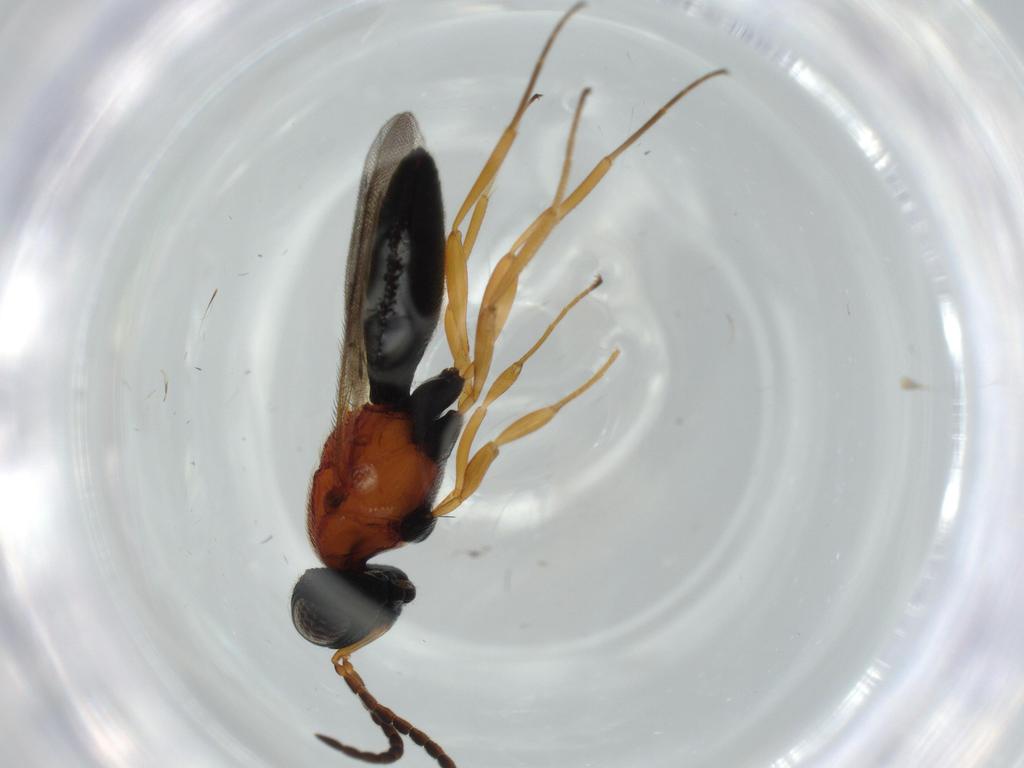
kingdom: Animalia
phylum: Arthropoda
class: Insecta
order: Hymenoptera
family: Scelionidae
